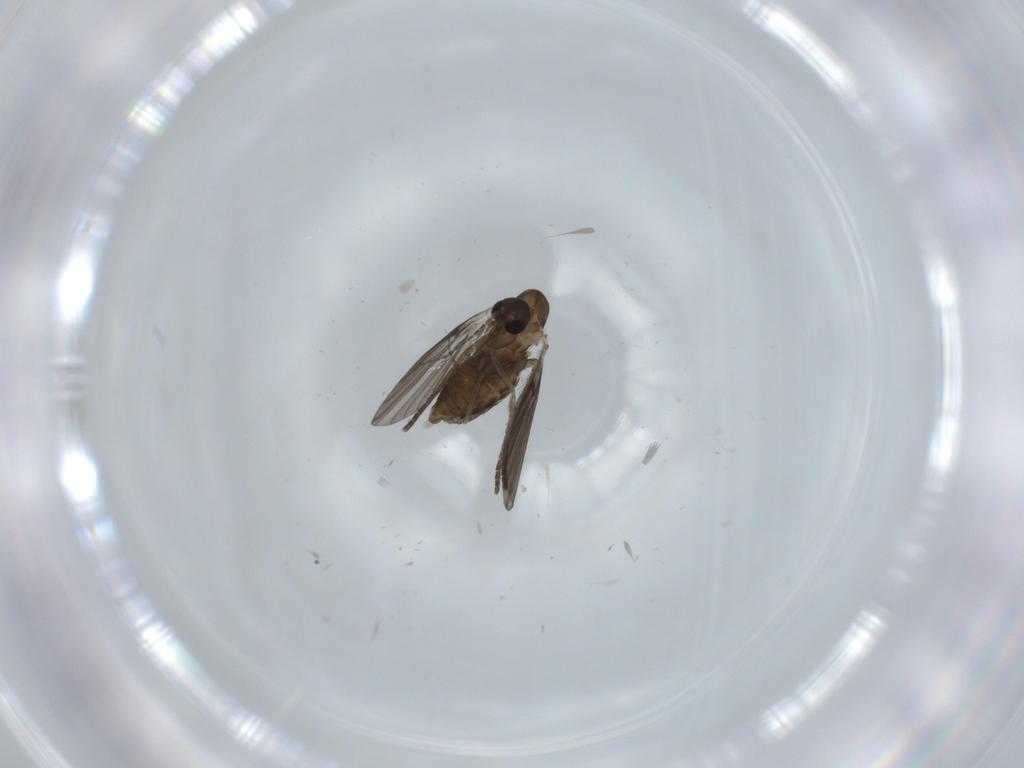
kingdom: Animalia
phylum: Arthropoda
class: Insecta
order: Diptera
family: Psychodidae
